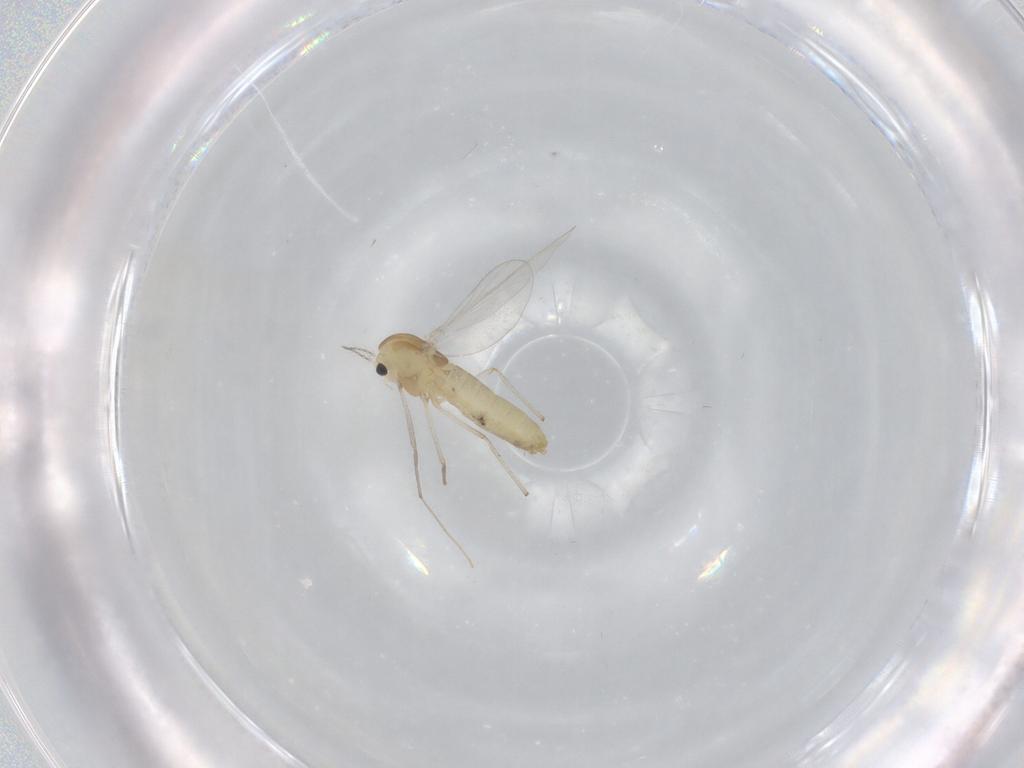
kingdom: Animalia
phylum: Arthropoda
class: Insecta
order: Diptera
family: Chironomidae
